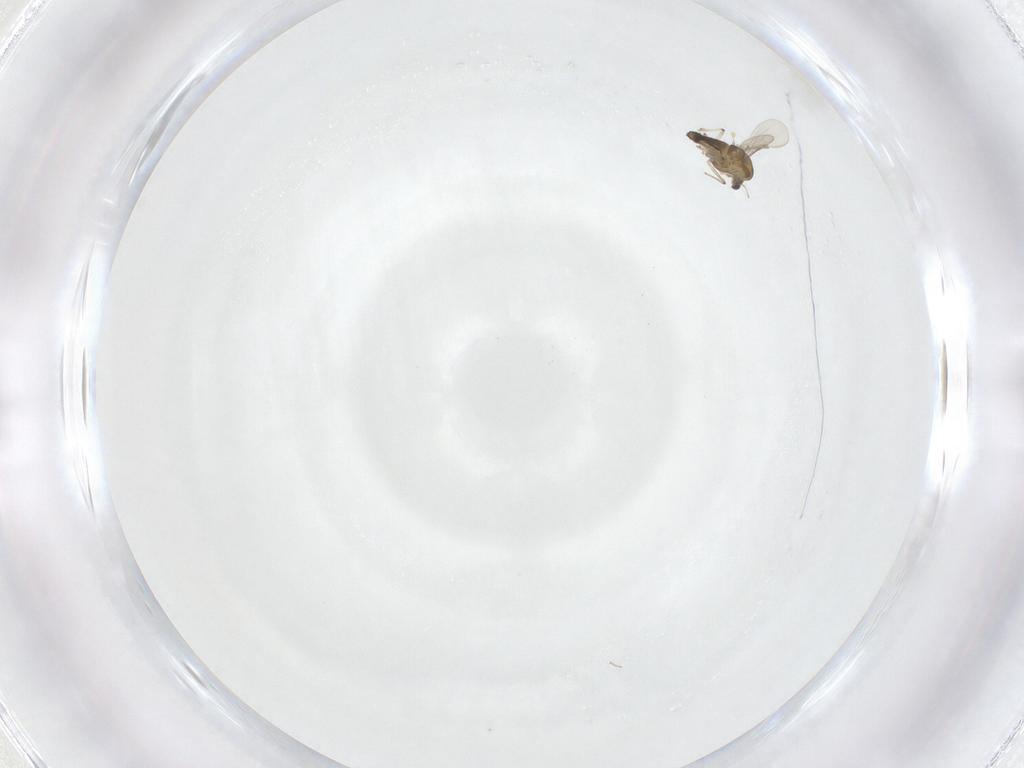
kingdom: Animalia
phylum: Arthropoda
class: Insecta
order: Diptera
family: Chironomidae
